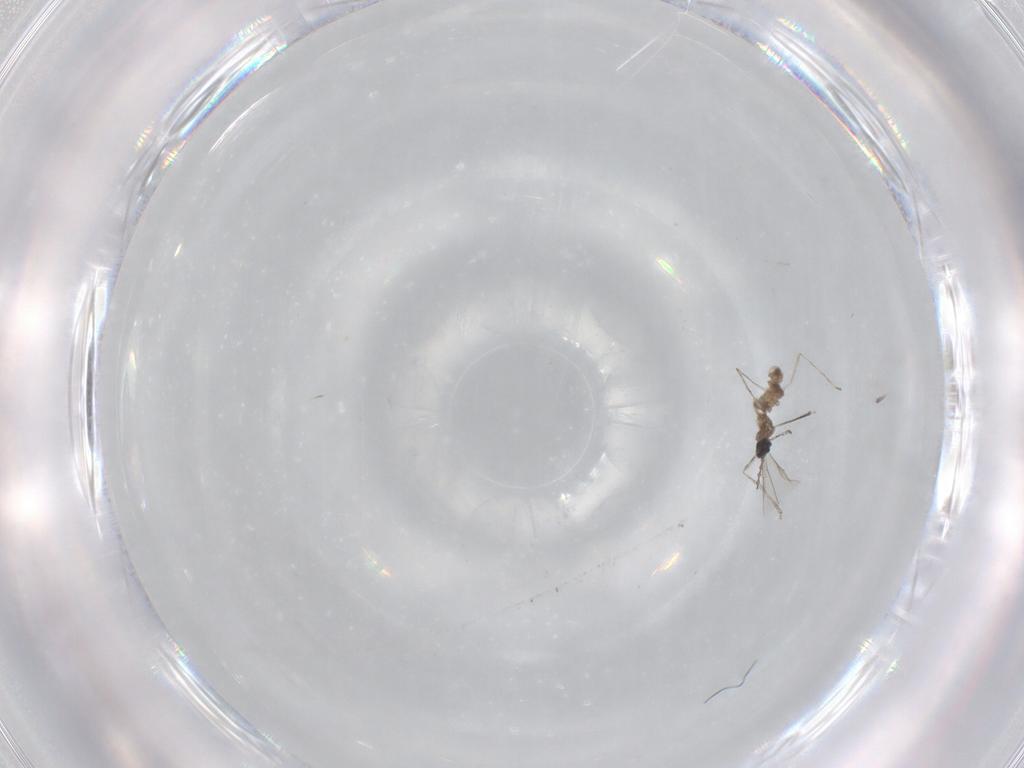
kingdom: Animalia
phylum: Arthropoda
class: Insecta
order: Diptera
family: Cecidomyiidae
